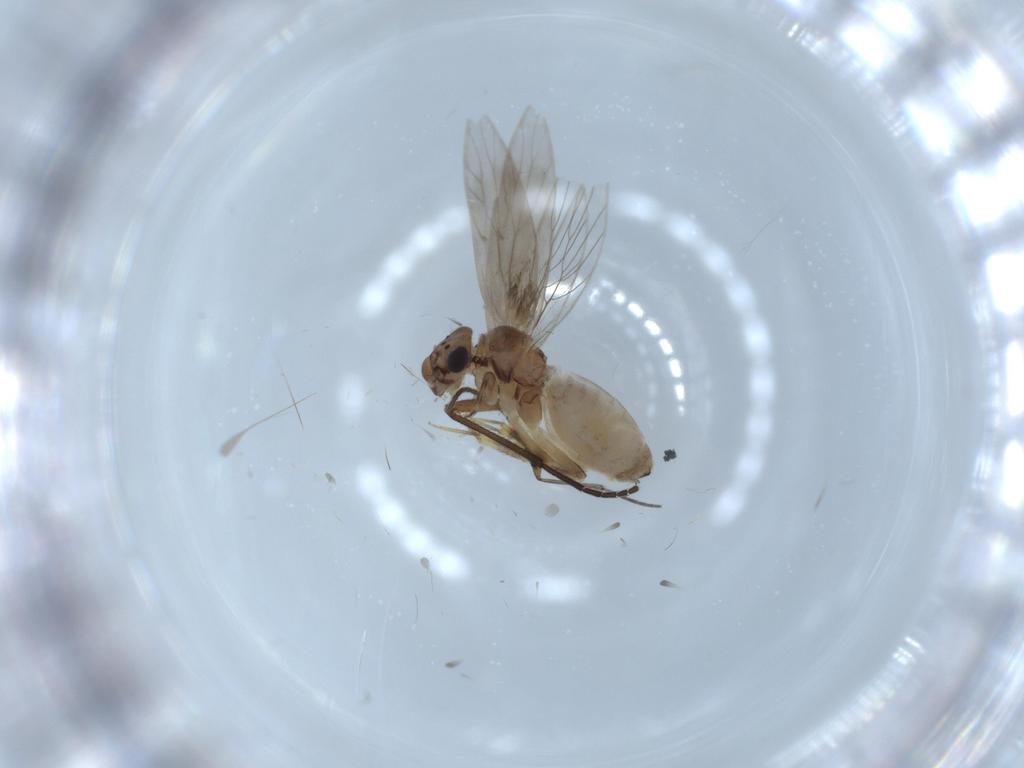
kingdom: Animalia
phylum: Arthropoda
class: Insecta
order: Psocodea
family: Lepidopsocidae
